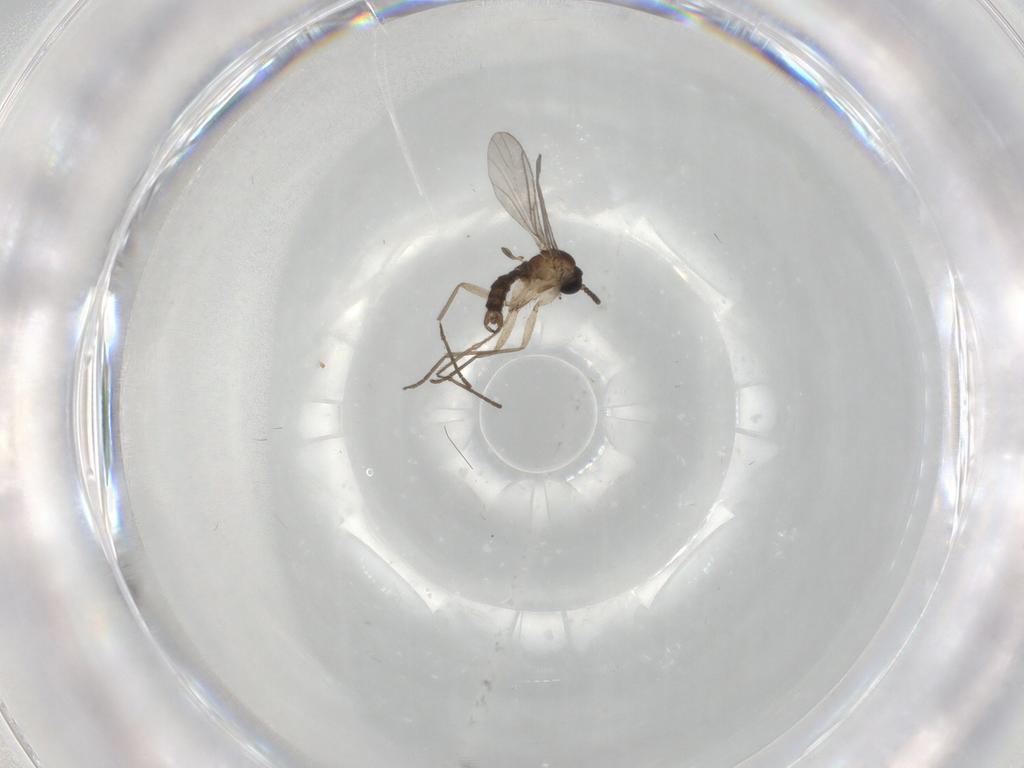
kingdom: Animalia
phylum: Arthropoda
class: Insecta
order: Diptera
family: Sciaridae
